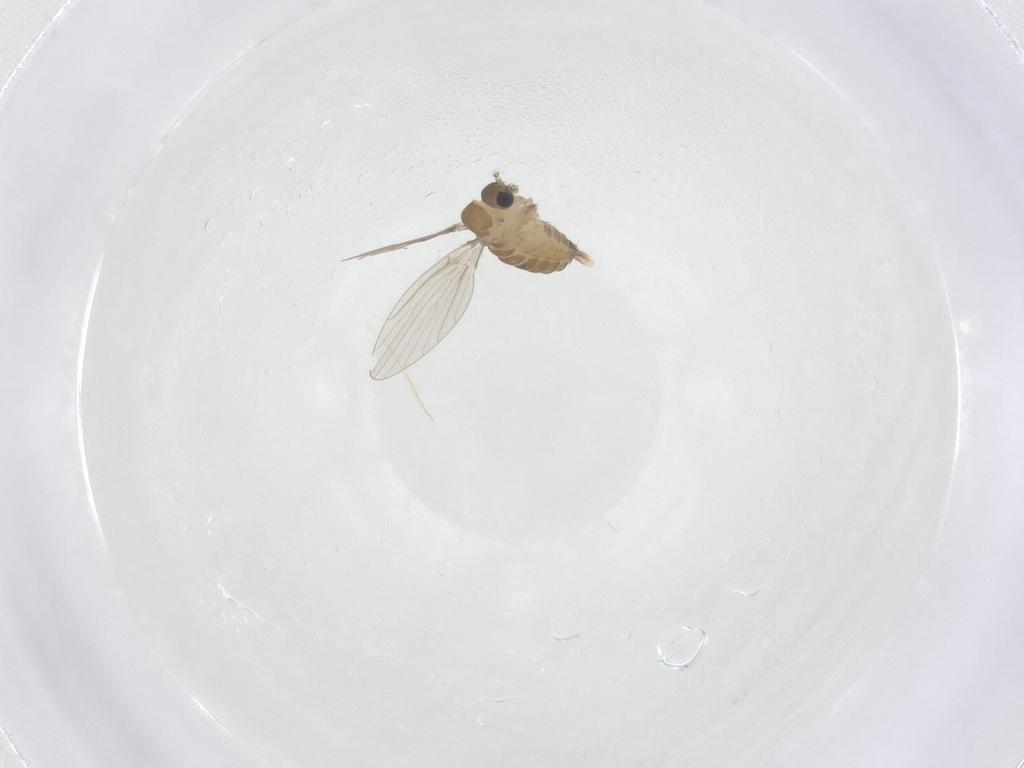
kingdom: Animalia
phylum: Arthropoda
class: Insecta
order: Diptera
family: Psychodidae
